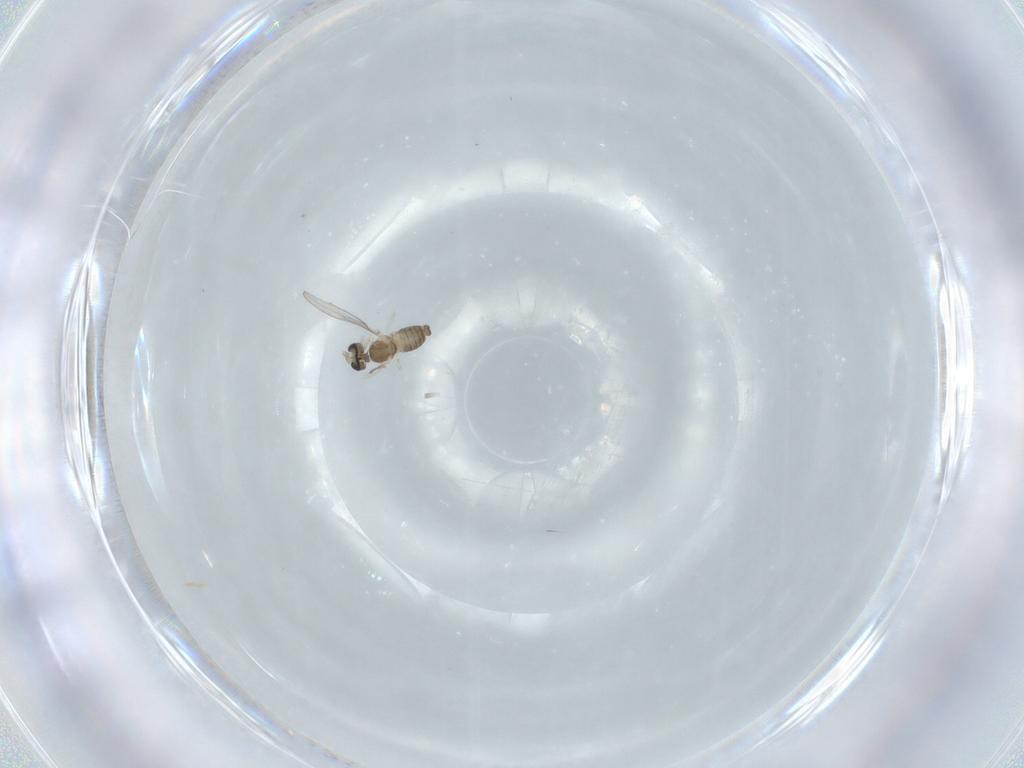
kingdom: Animalia
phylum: Arthropoda
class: Insecta
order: Diptera
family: Cecidomyiidae
